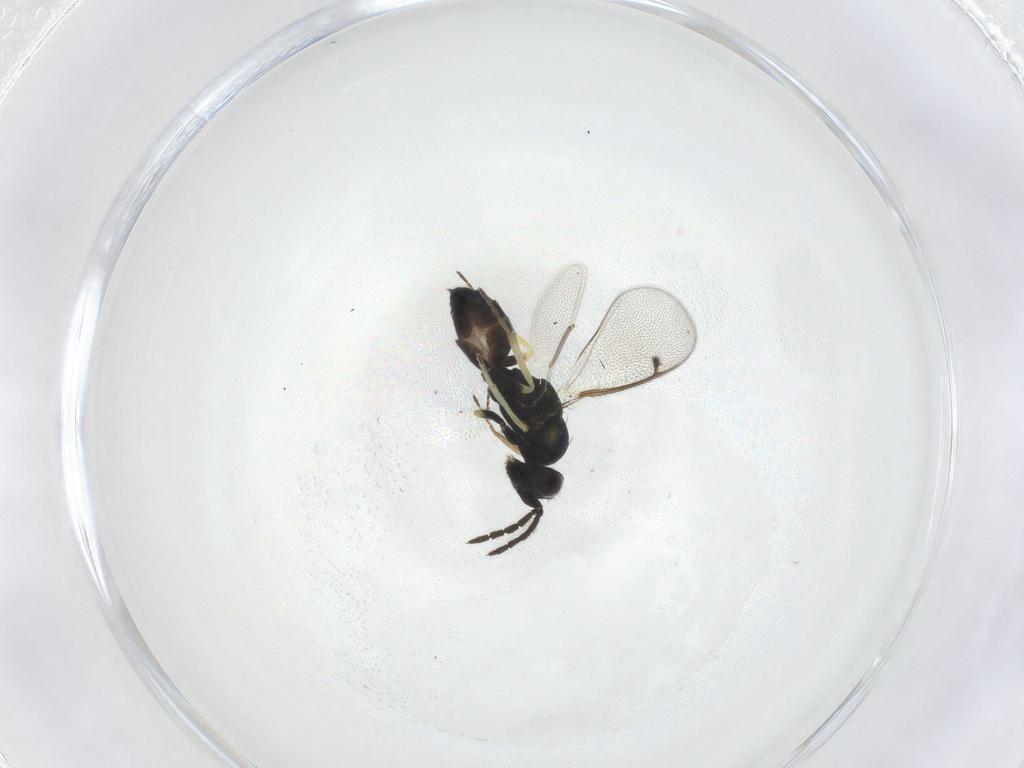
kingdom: Animalia
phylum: Arthropoda
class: Insecta
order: Hymenoptera
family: Eulophidae
